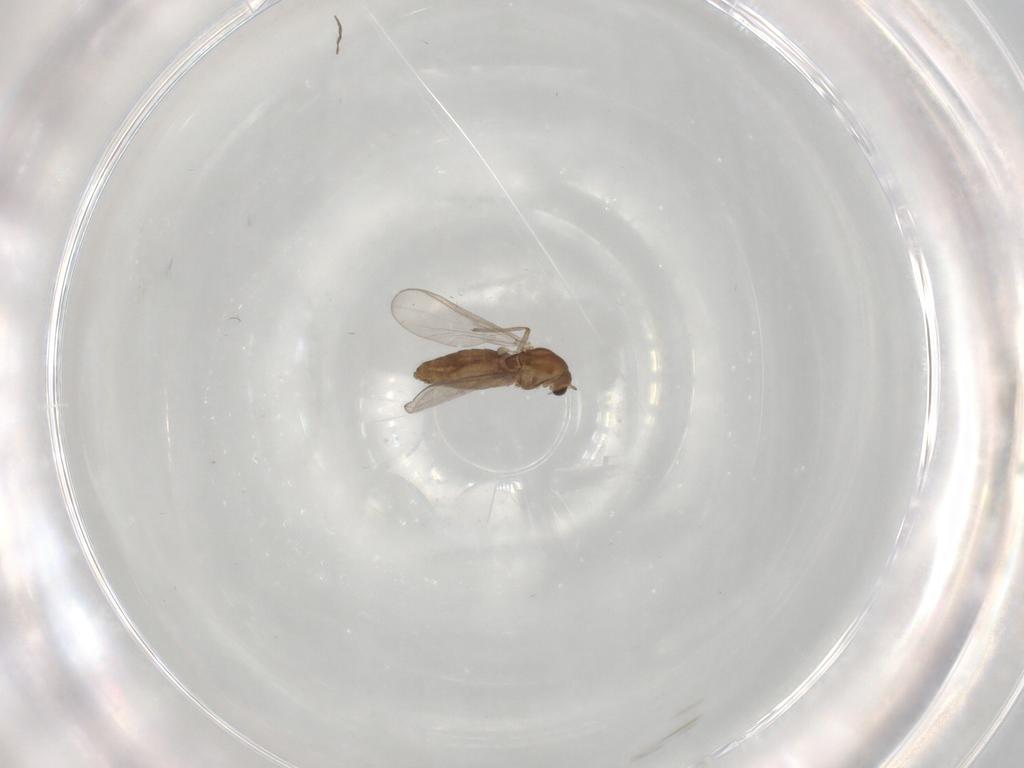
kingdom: Animalia
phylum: Arthropoda
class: Insecta
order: Diptera
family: Chironomidae
